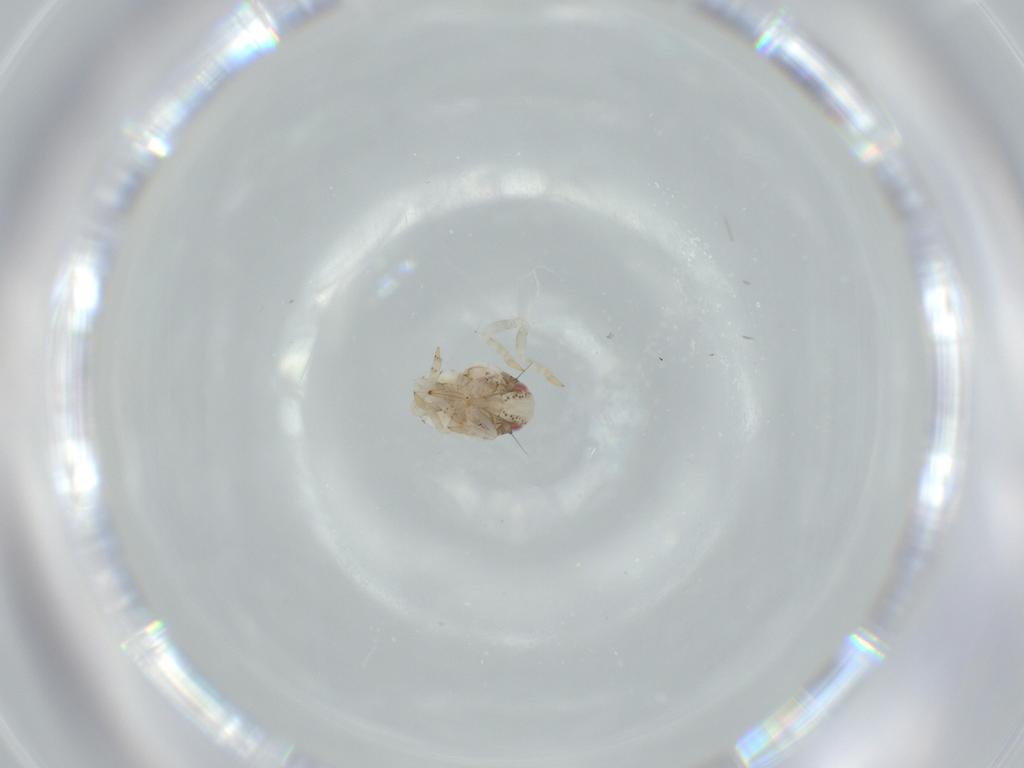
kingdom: Animalia
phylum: Arthropoda
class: Insecta
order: Hemiptera
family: Acanaloniidae
